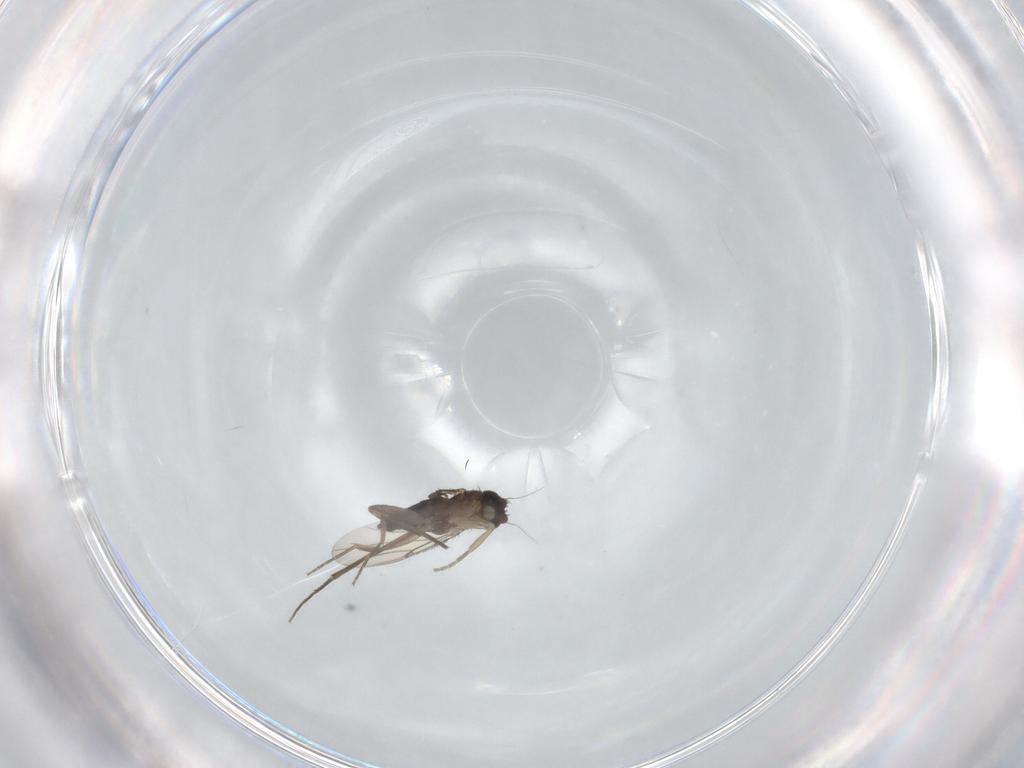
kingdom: Animalia
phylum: Arthropoda
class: Insecta
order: Diptera
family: Phoridae
